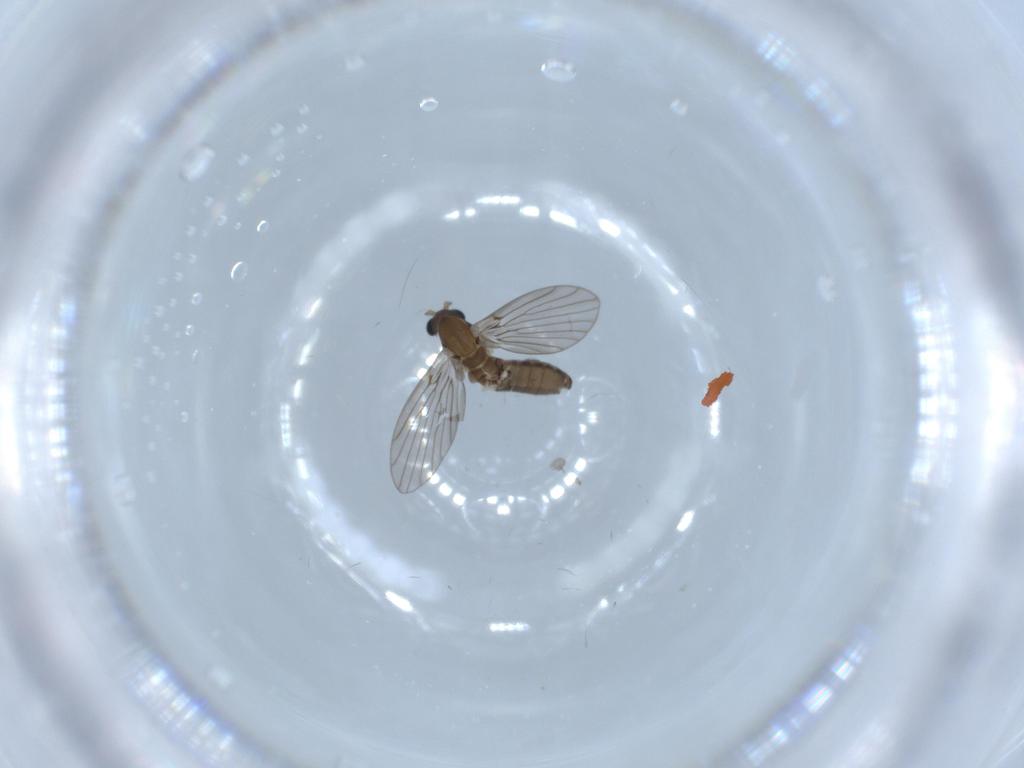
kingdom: Animalia
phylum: Arthropoda
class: Insecta
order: Diptera
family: Psychodidae
